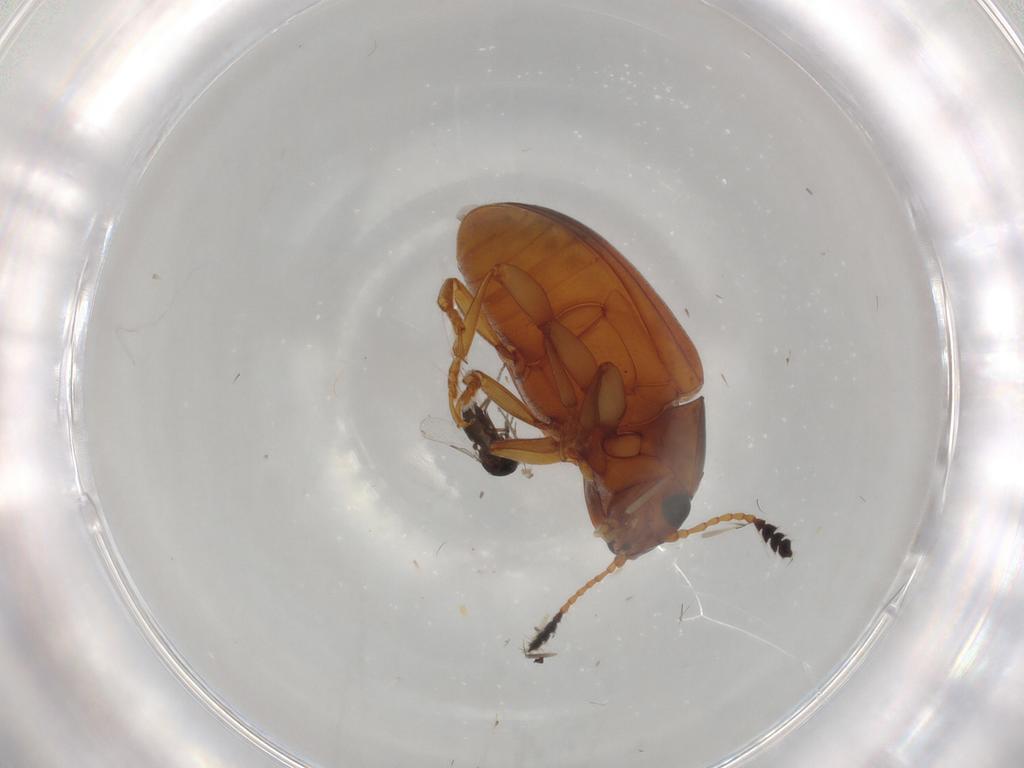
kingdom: Animalia
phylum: Arthropoda
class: Insecta
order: Coleoptera
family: Erotylidae
